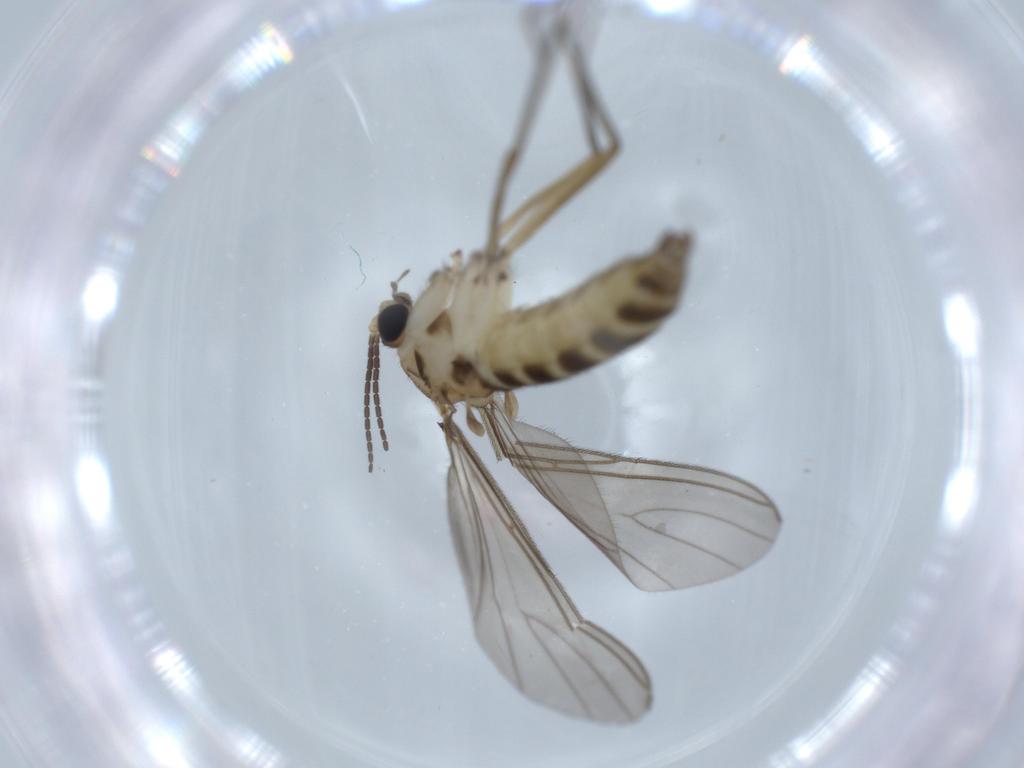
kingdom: Animalia
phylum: Arthropoda
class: Insecta
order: Diptera
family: Sciaridae
